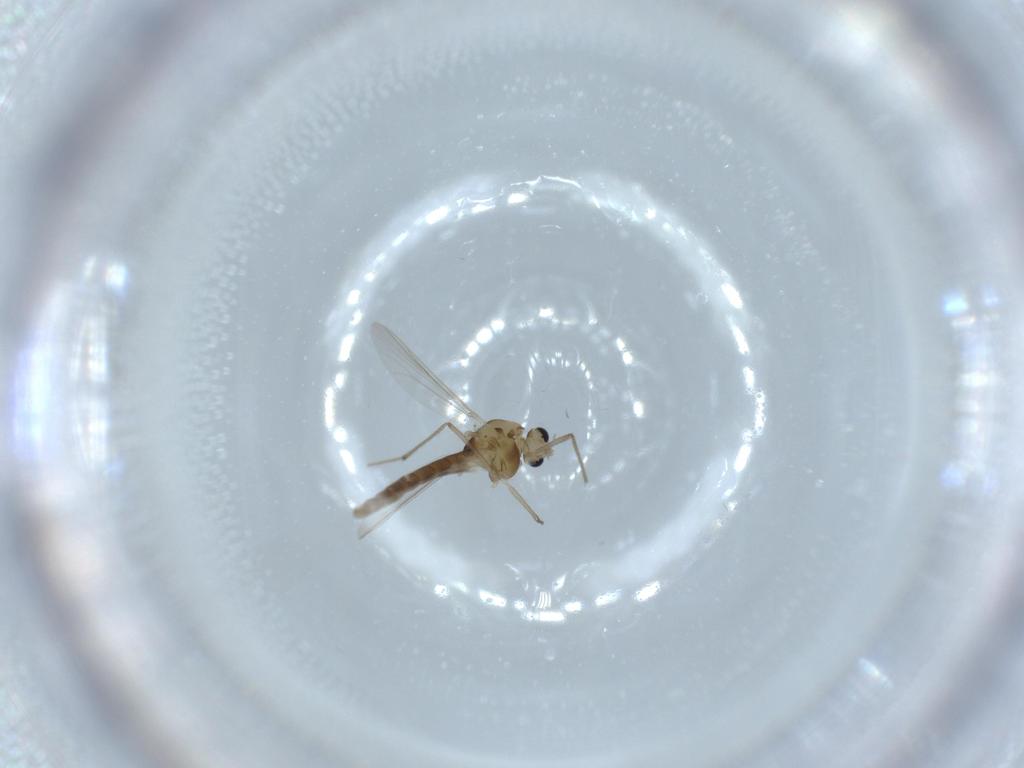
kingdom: Animalia
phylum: Arthropoda
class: Insecta
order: Diptera
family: Chironomidae
